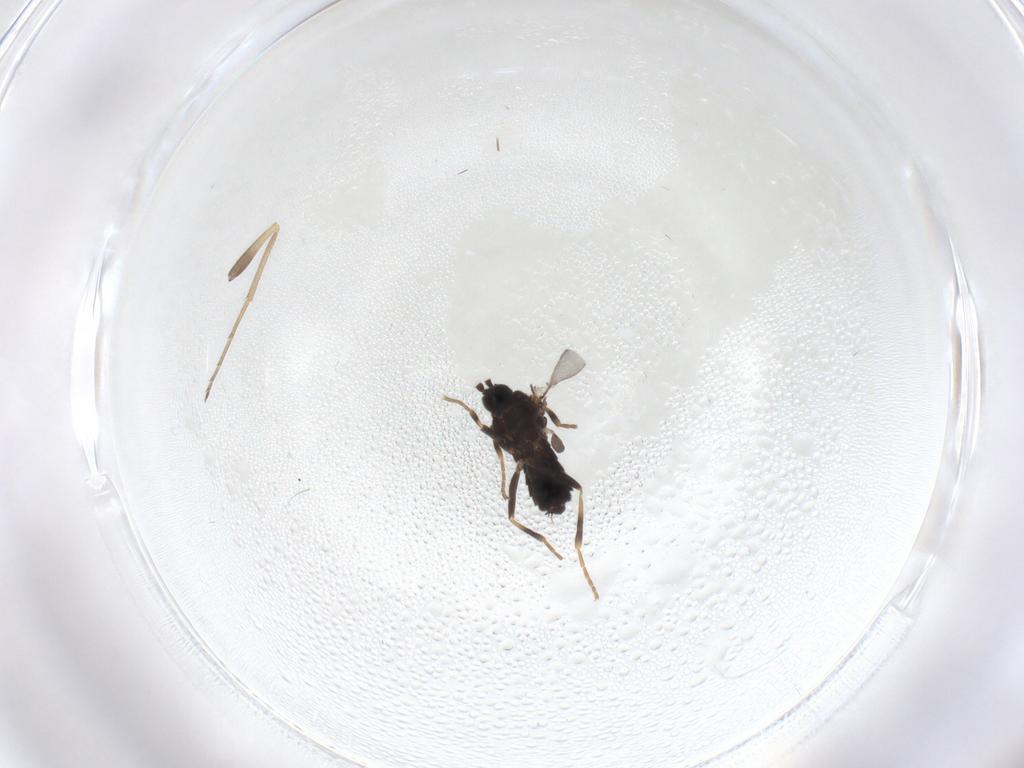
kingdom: Animalia
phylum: Arthropoda
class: Insecta
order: Diptera
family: Scatopsidae
